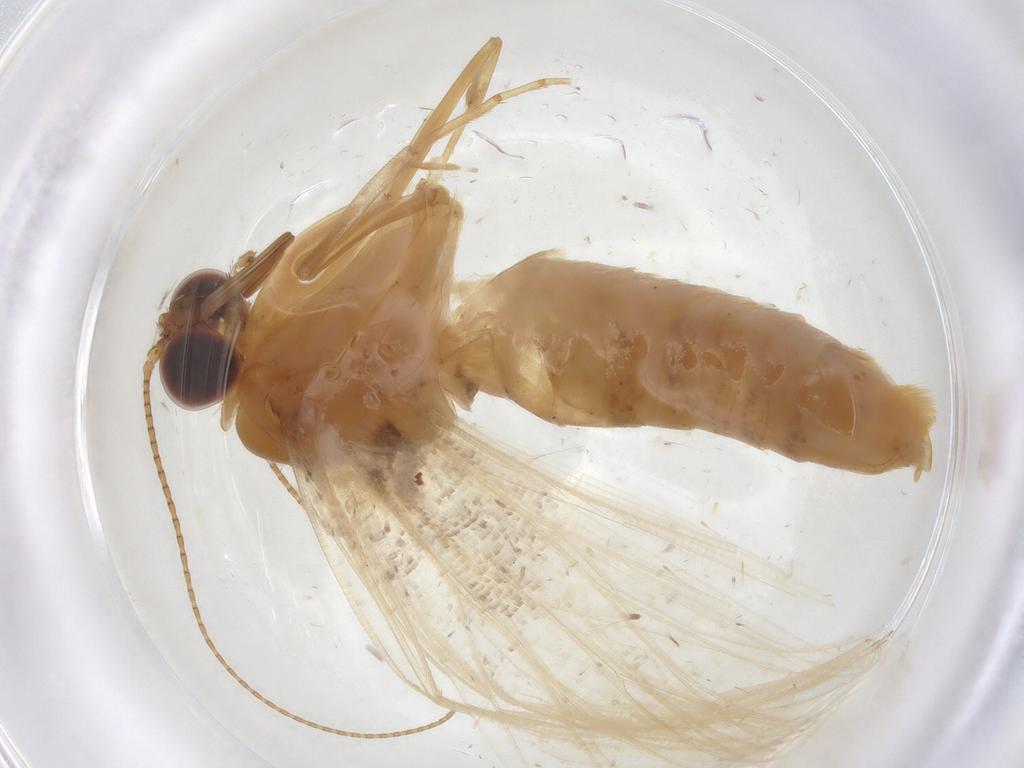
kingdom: Animalia
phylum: Arthropoda
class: Insecta
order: Lepidoptera
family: Geometridae
